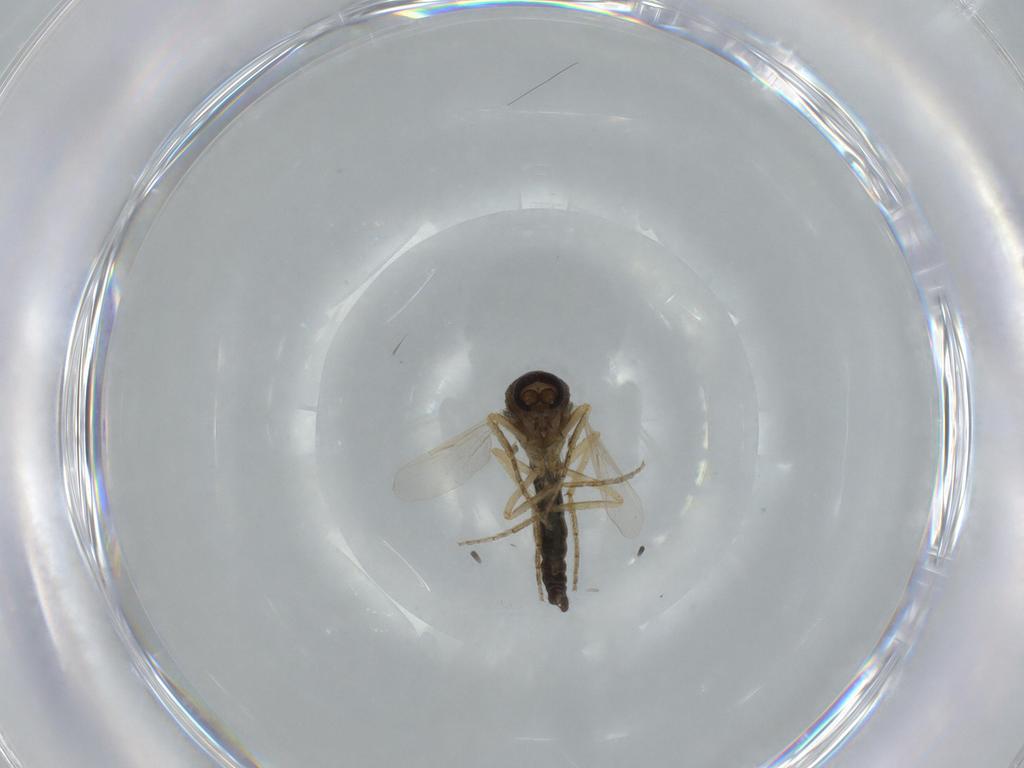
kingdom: Animalia
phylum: Arthropoda
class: Insecta
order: Diptera
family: Ceratopogonidae
